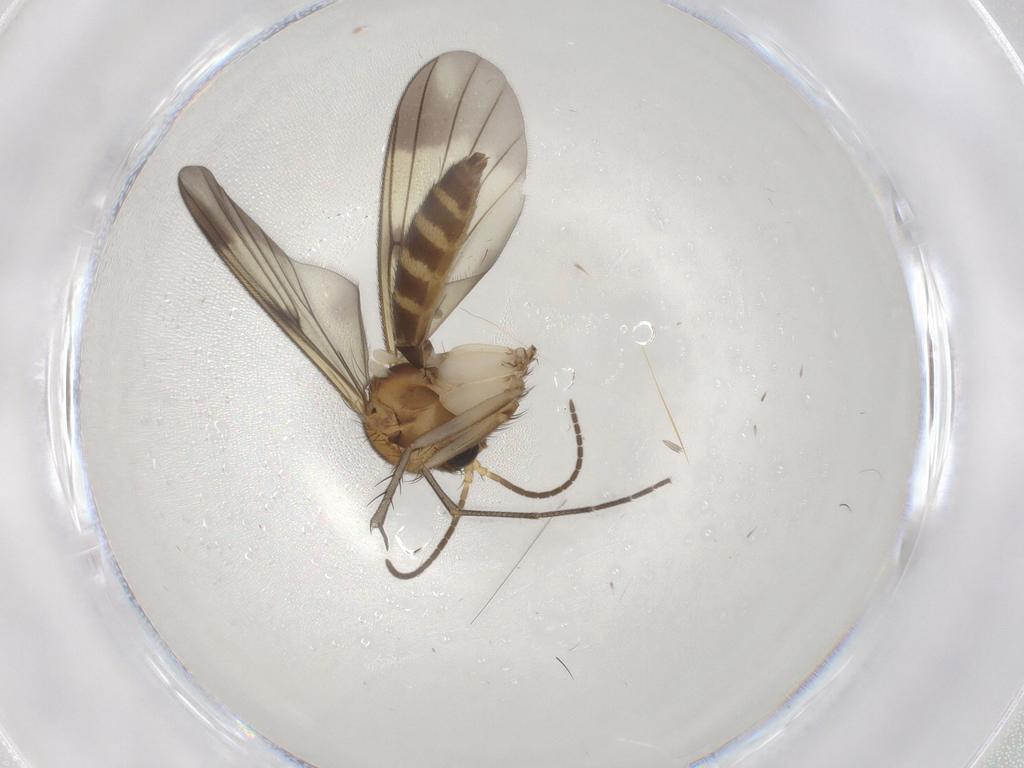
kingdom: Animalia
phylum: Arthropoda
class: Insecta
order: Diptera
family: Mycetophilidae
